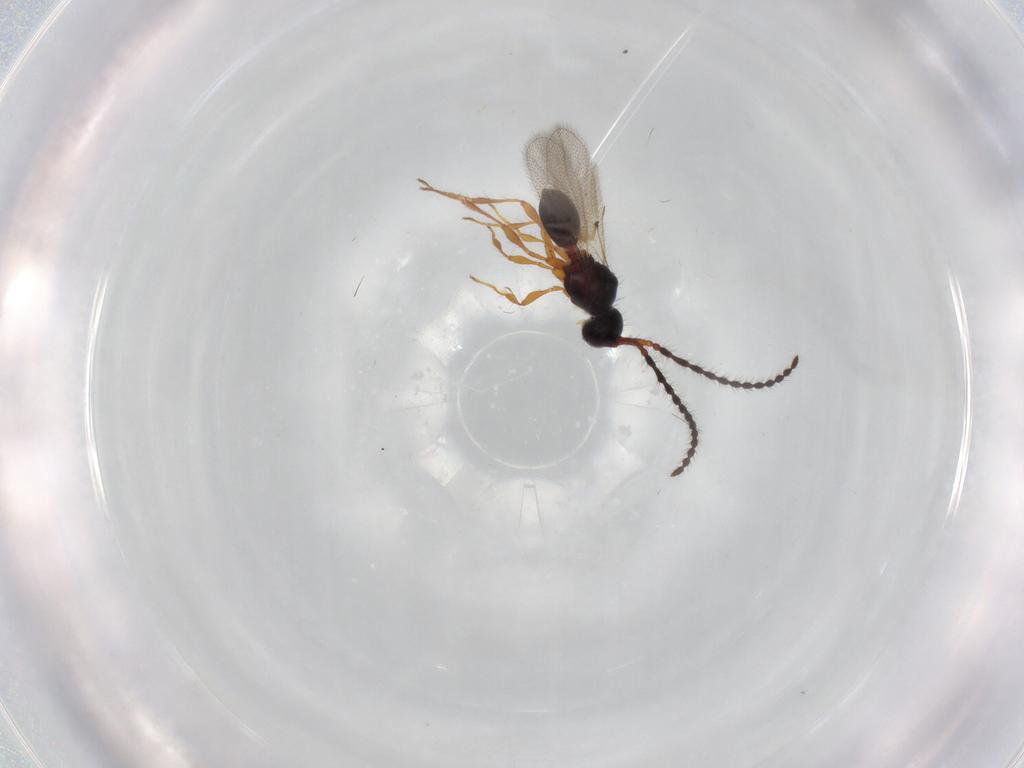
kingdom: Animalia
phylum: Arthropoda
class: Insecta
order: Hymenoptera
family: Diapriidae
